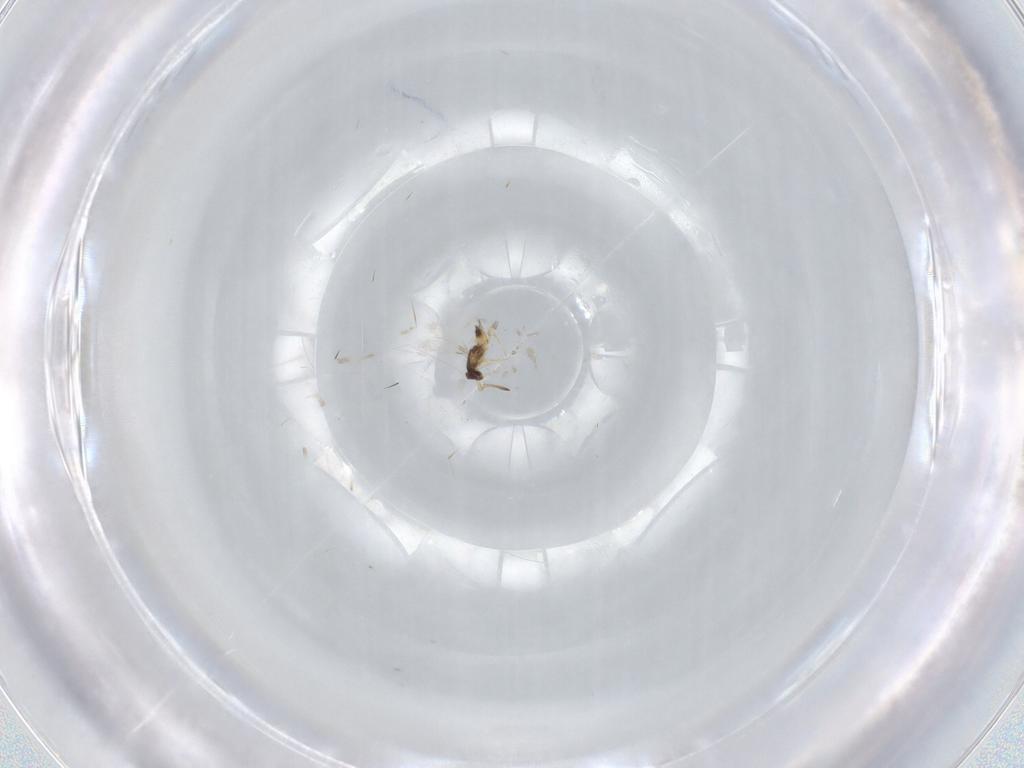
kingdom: Animalia
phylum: Arthropoda
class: Insecta
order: Hymenoptera
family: Mymaridae
